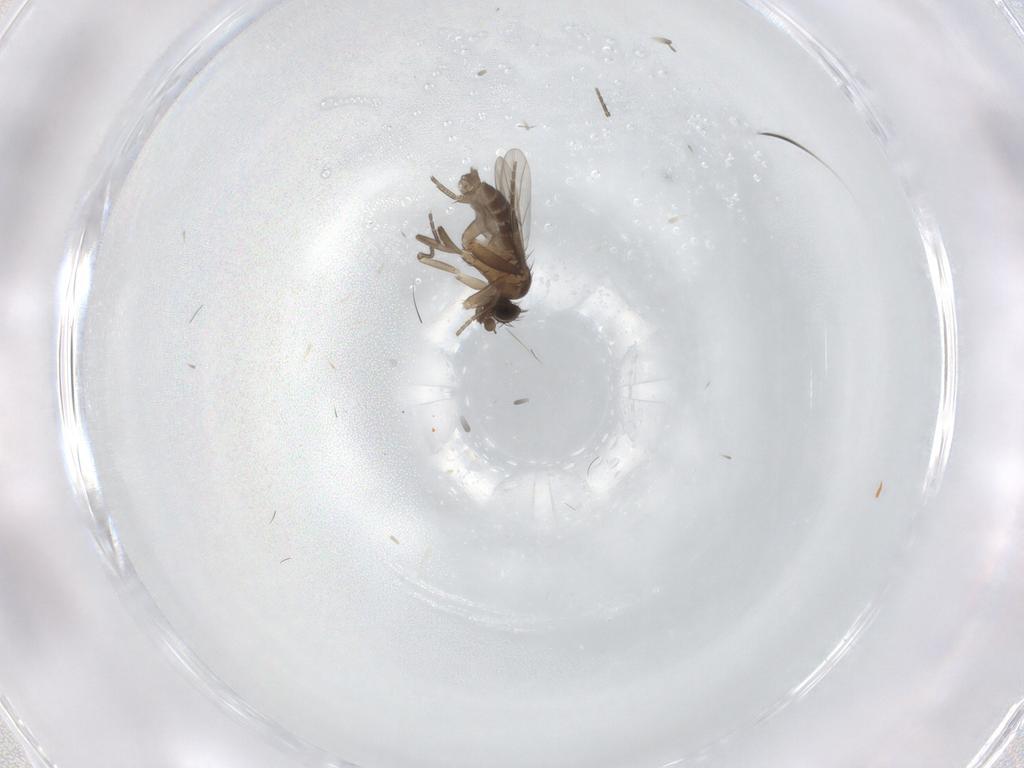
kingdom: Animalia
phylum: Arthropoda
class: Insecta
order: Diptera
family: Phoridae
